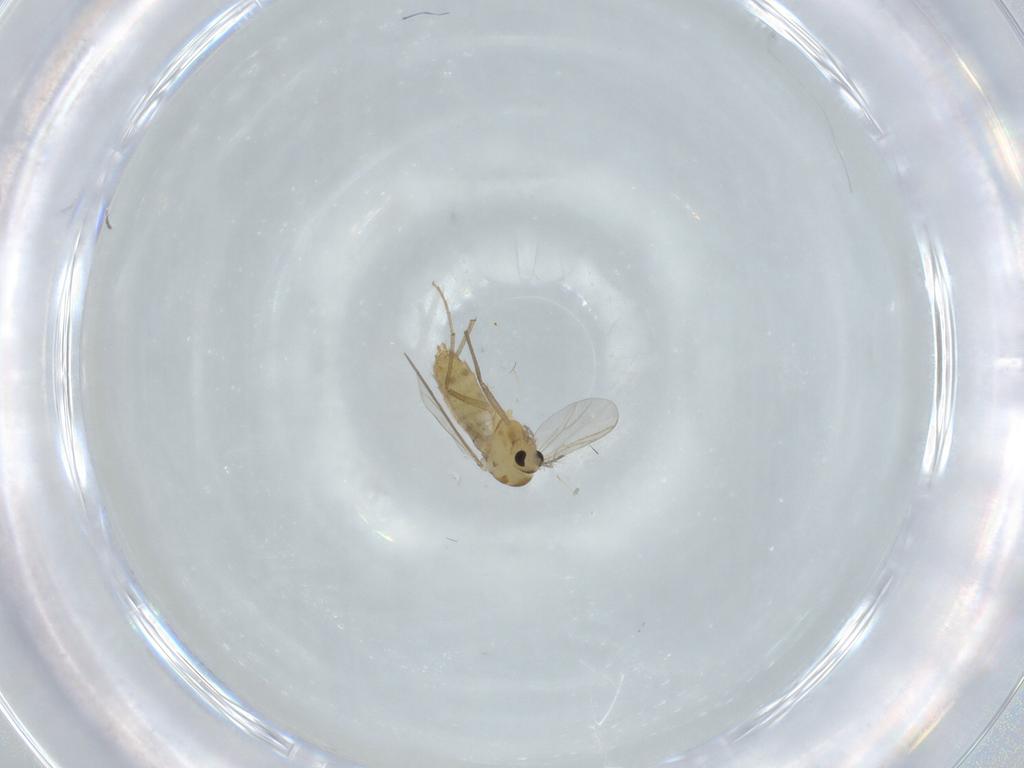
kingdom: Animalia
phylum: Arthropoda
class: Insecta
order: Diptera
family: Chironomidae
